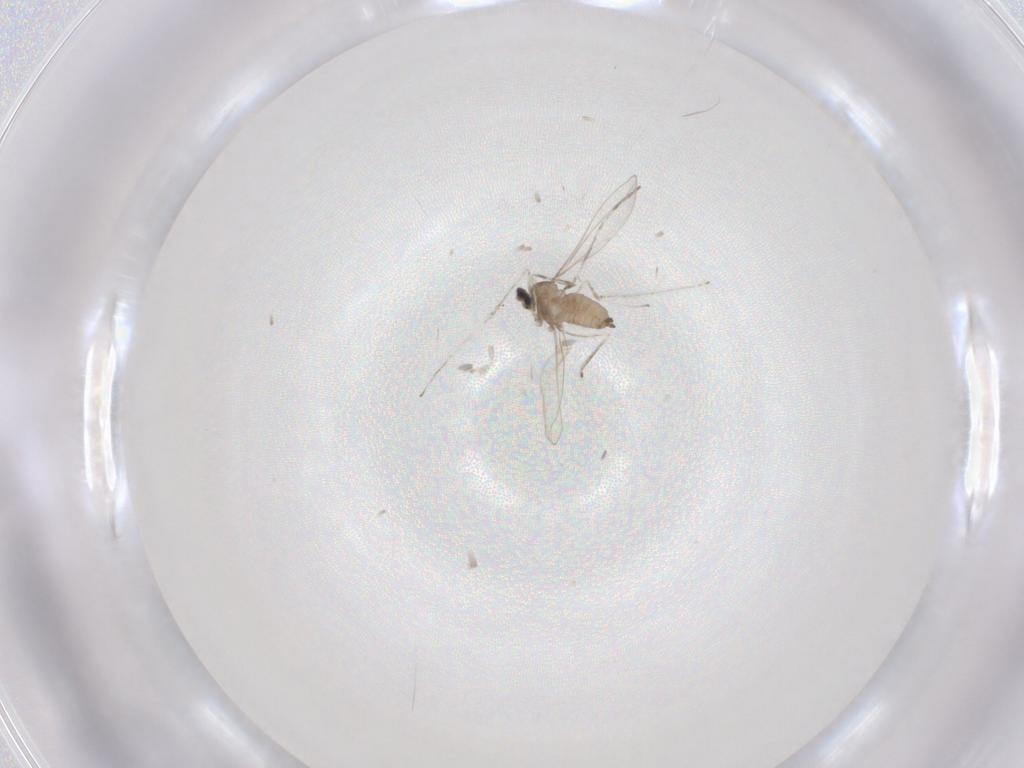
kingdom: Animalia
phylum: Arthropoda
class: Insecta
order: Diptera
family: Cecidomyiidae
